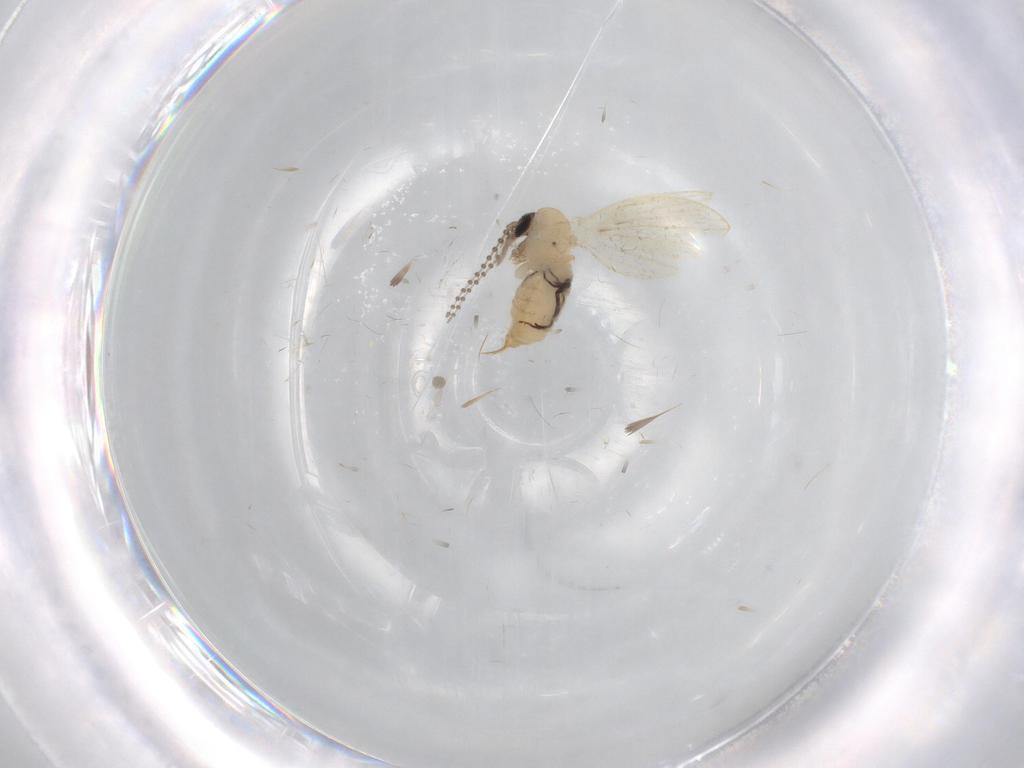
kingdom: Animalia
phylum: Arthropoda
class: Insecta
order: Diptera
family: Psychodidae
